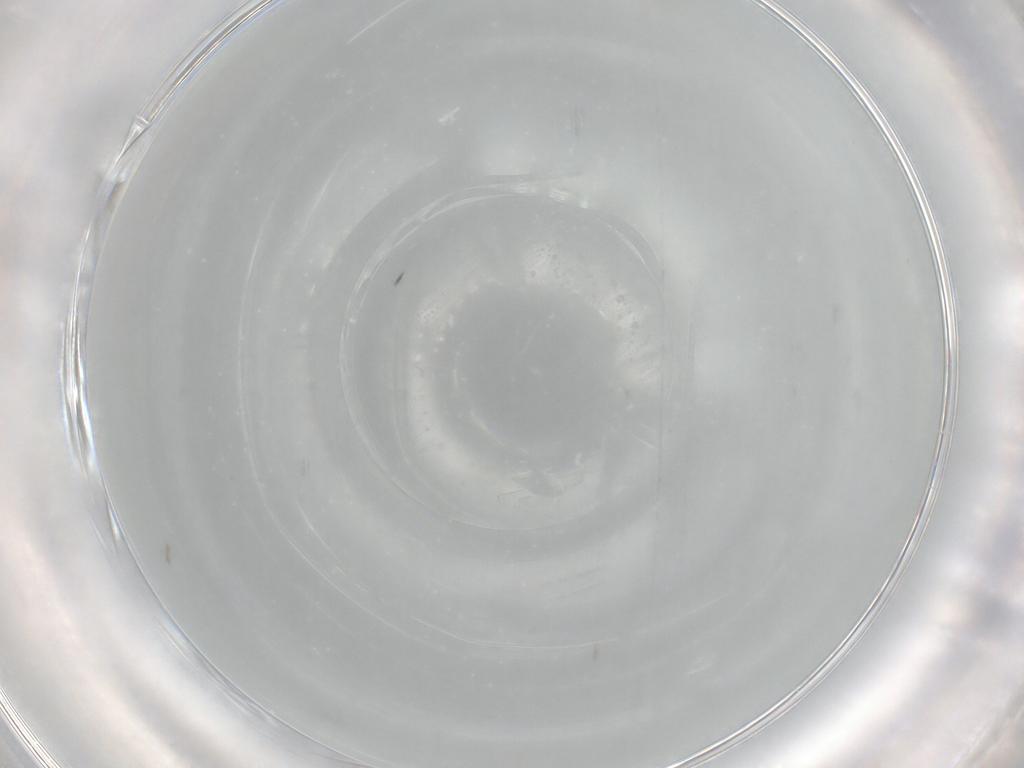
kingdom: Animalia
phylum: Arthropoda
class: Insecta
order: Diptera
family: Cecidomyiidae
